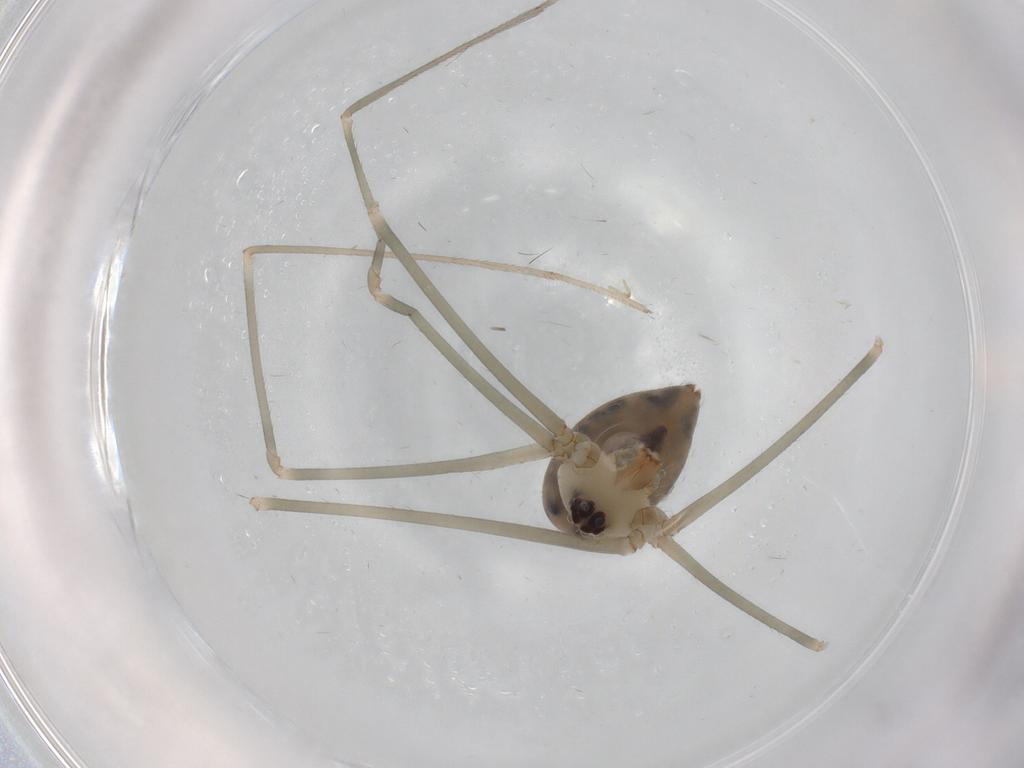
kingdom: Animalia
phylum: Arthropoda
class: Arachnida
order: Araneae
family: Pholcidae
